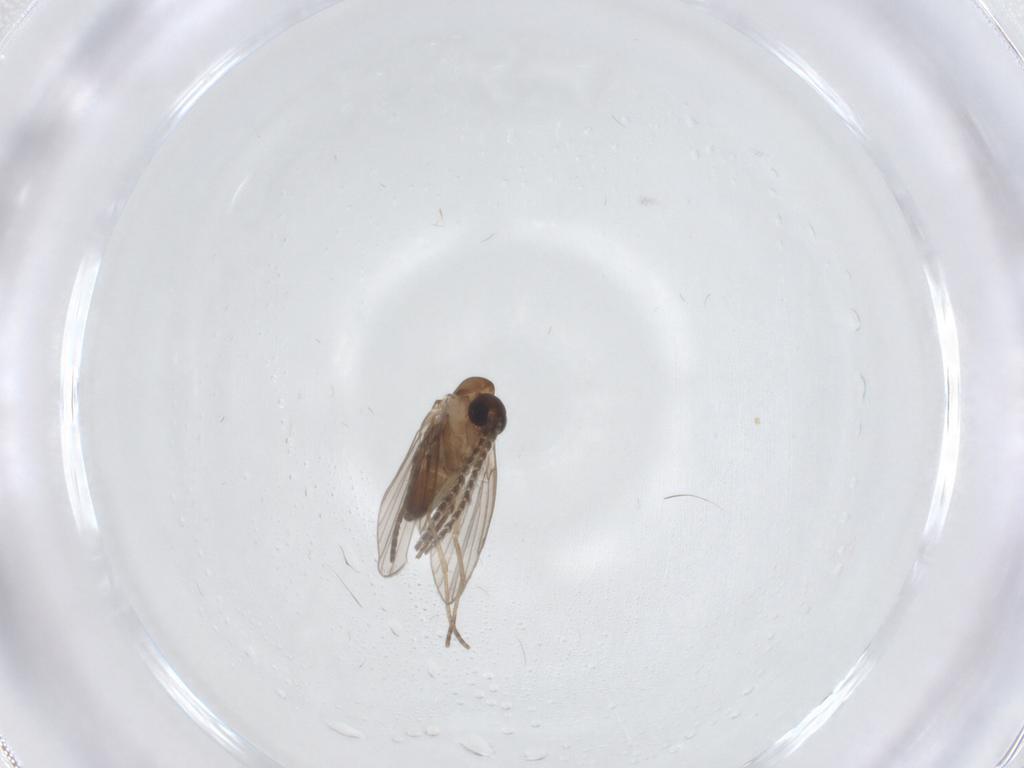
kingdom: Animalia
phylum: Arthropoda
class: Insecta
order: Diptera
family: Limoniidae
